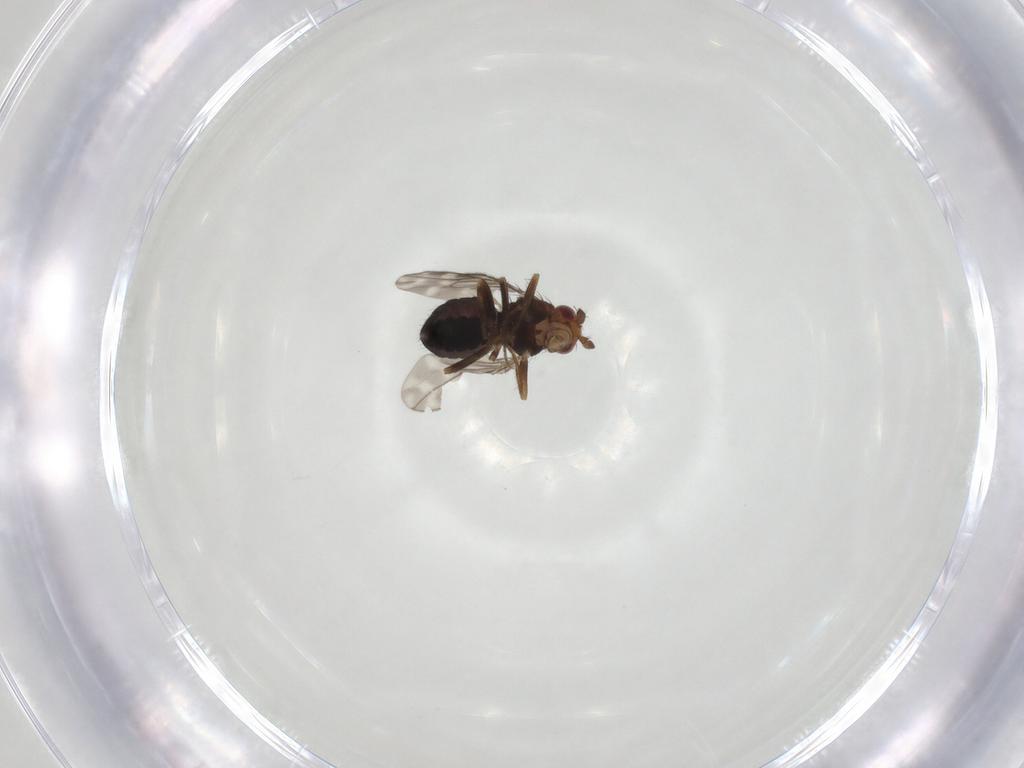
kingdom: Animalia
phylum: Arthropoda
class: Insecta
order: Diptera
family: Sphaeroceridae
